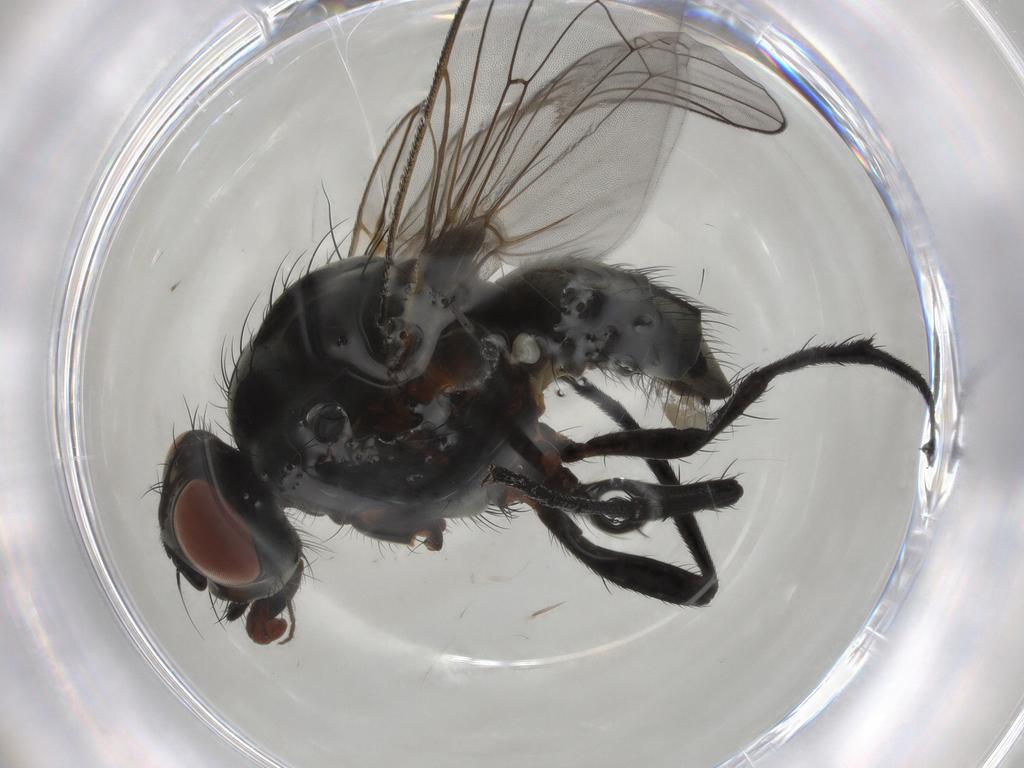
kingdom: Animalia
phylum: Arthropoda
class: Insecta
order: Diptera
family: Anthomyiidae
